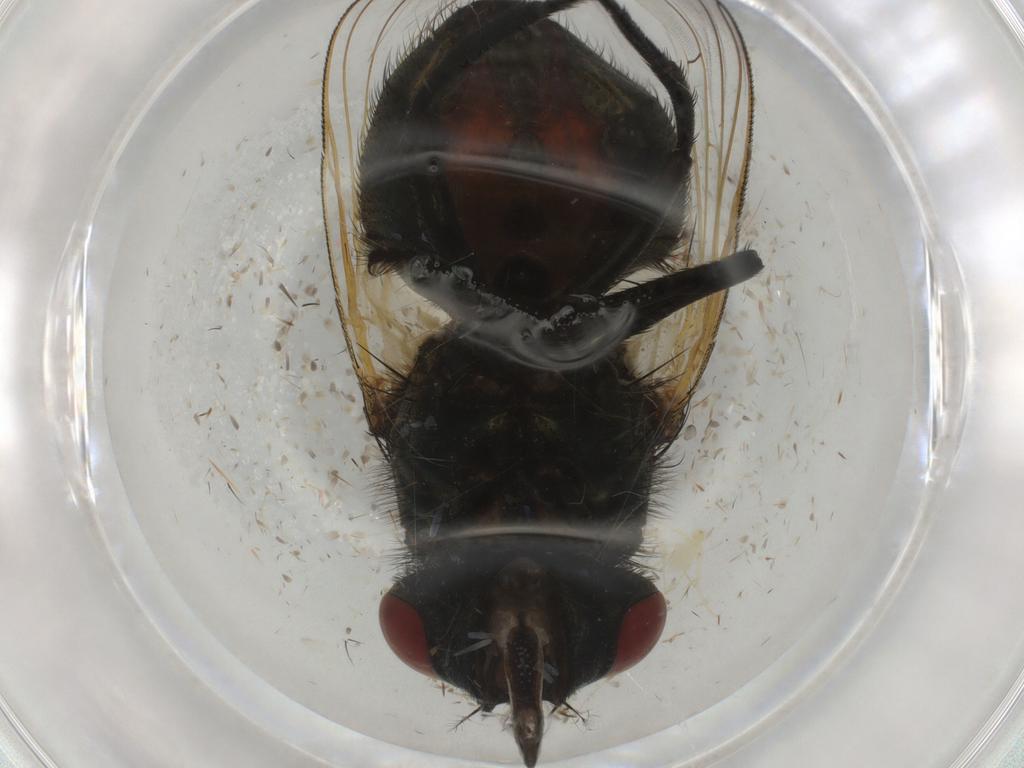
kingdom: Animalia
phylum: Arthropoda
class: Insecta
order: Diptera
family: Muscidae
